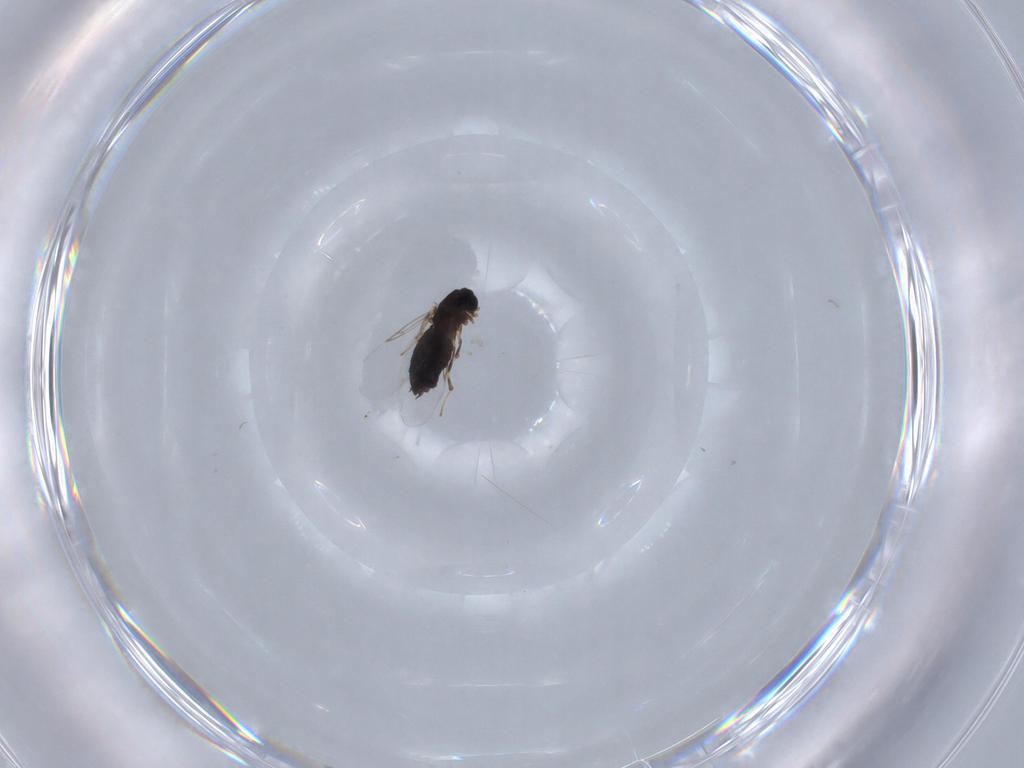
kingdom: Animalia
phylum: Arthropoda
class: Insecta
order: Diptera
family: Scatopsidae
